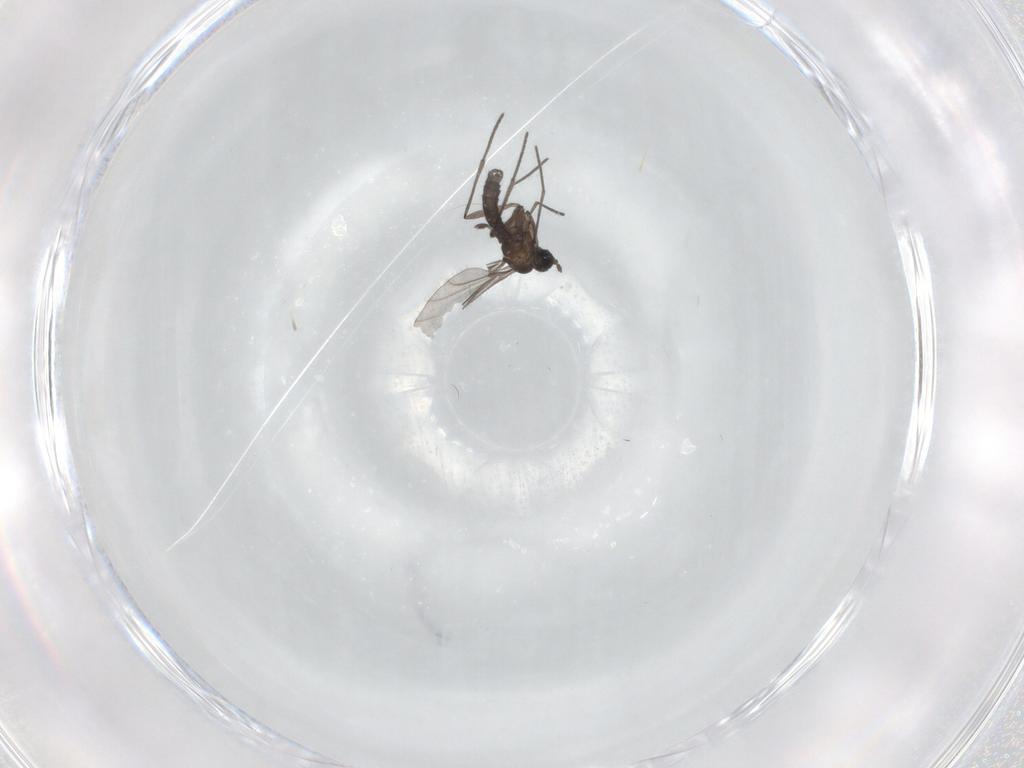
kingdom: Animalia
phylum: Arthropoda
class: Insecta
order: Diptera
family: Sciaridae
